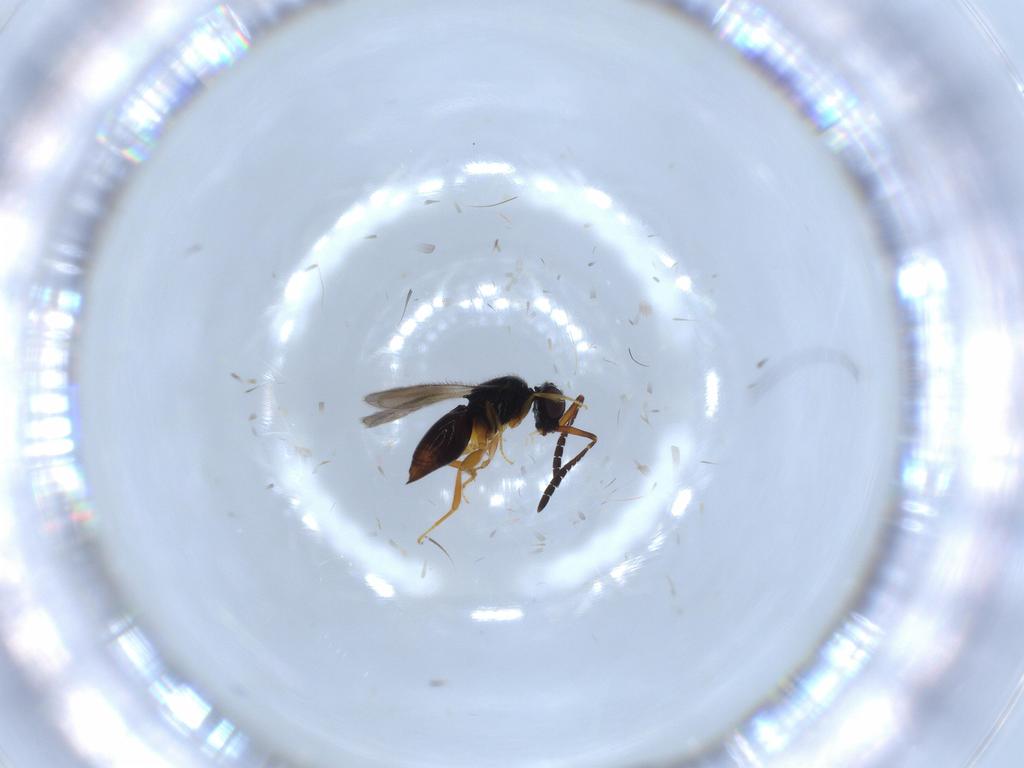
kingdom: Animalia
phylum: Arthropoda
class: Insecta
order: Hymenoptera
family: Ceraphronidae
